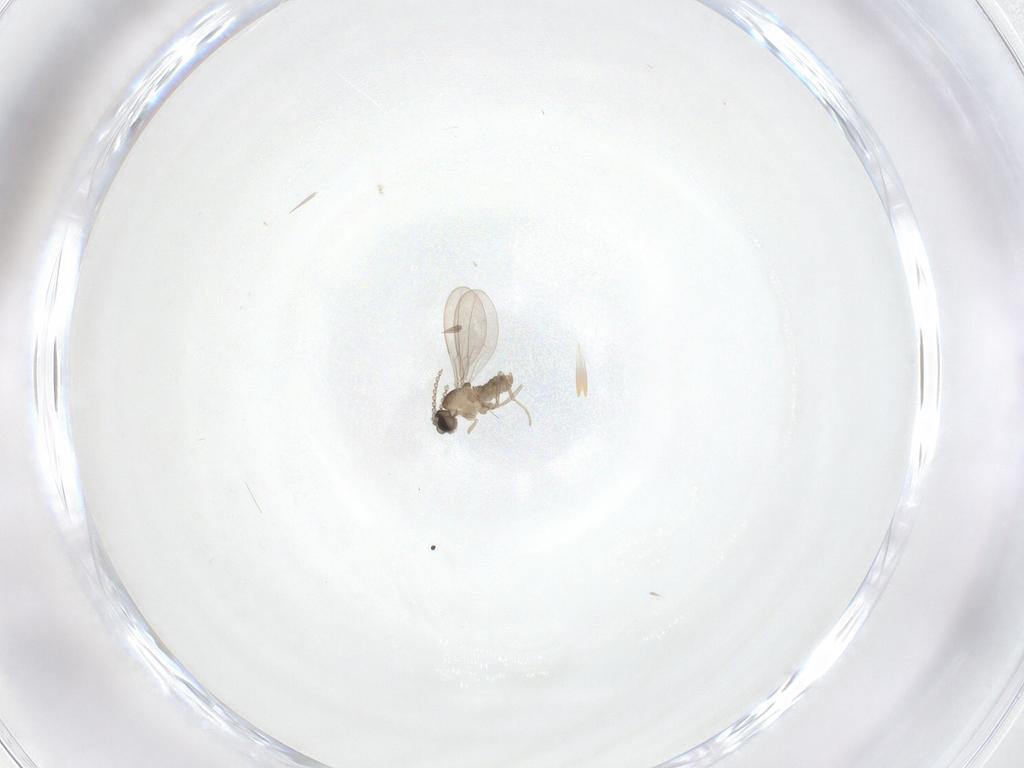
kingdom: Animalia
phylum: Arthropoda
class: Insecta
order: Diptera
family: Cecidomyiidae
